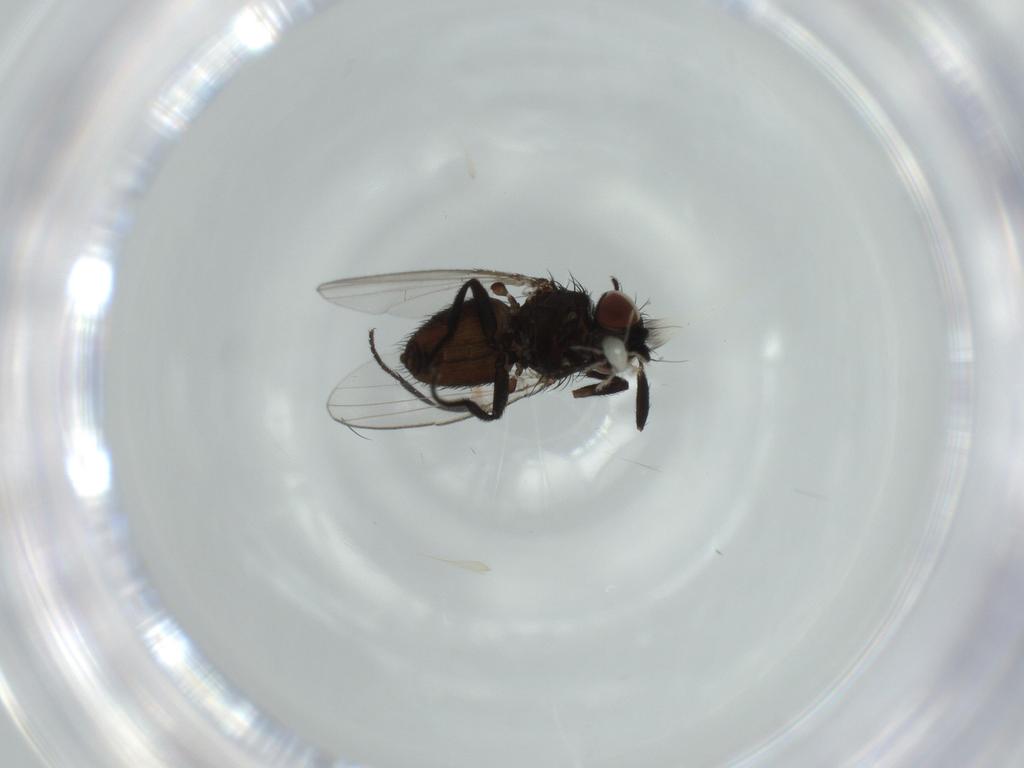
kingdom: Animalia
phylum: Arthropoda
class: Insecta
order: Diptera
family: Milichiidae
